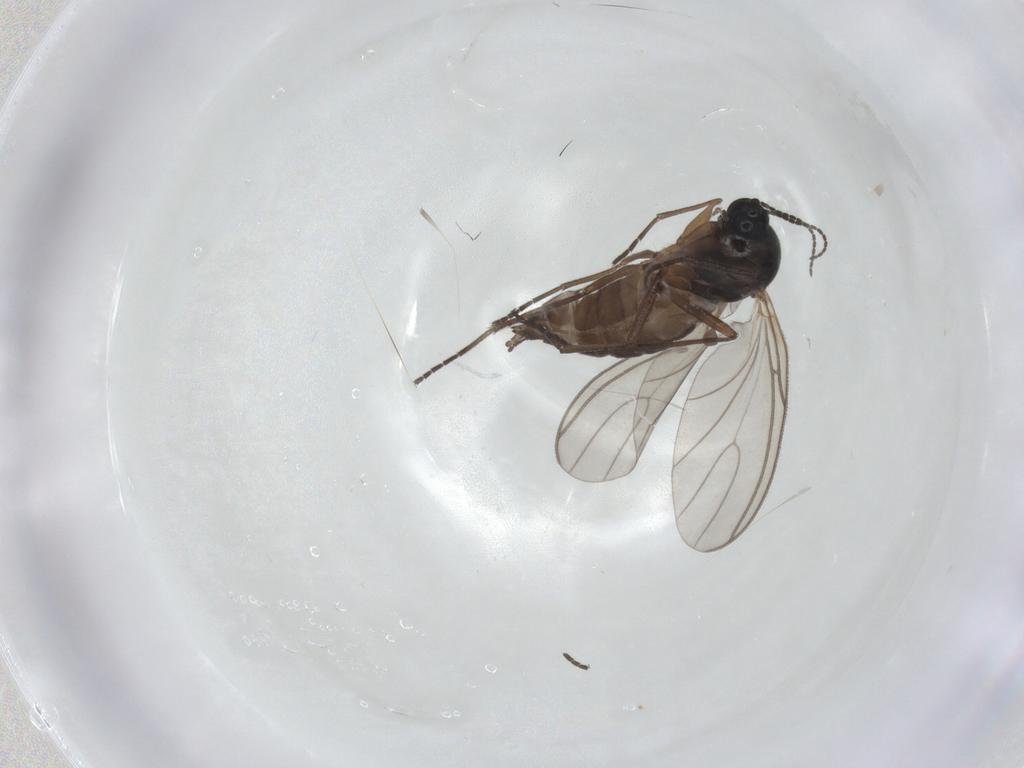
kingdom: Animalia
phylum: Arthropoda
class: Insecta
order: Diptera
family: Sciaridae
